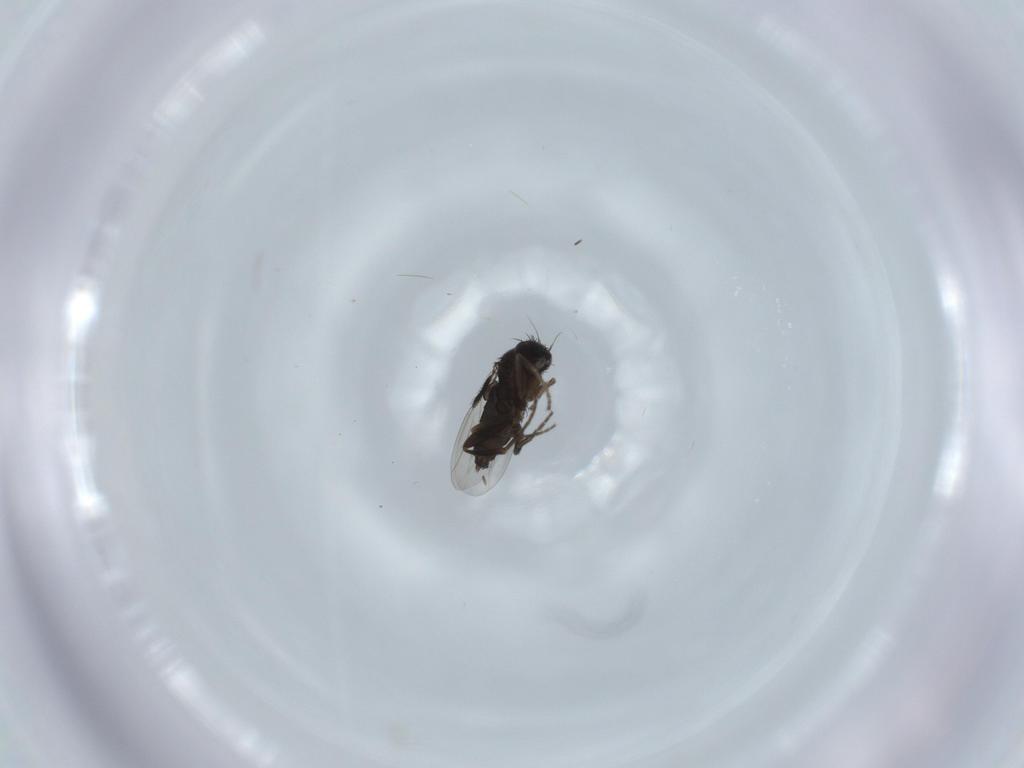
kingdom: Animalia
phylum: Arthropoda
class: Insecta
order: Diptera
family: Phoridae
